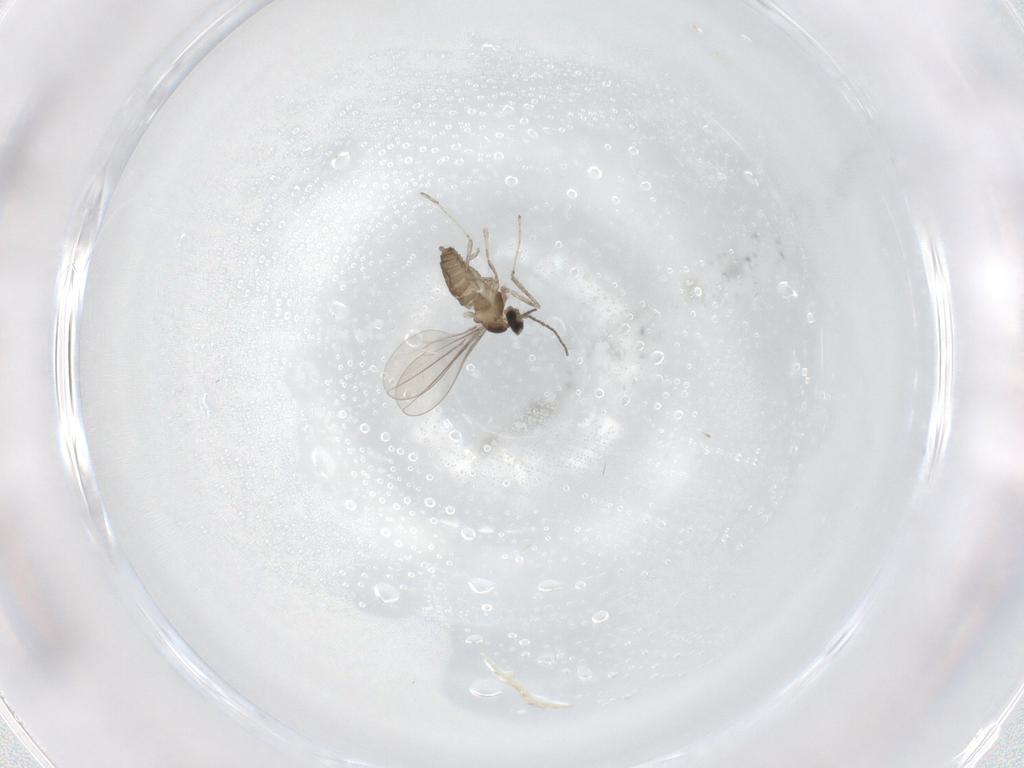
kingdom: Animalia
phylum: Arthropoda
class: Insecta
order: Diptera
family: Phoridae
